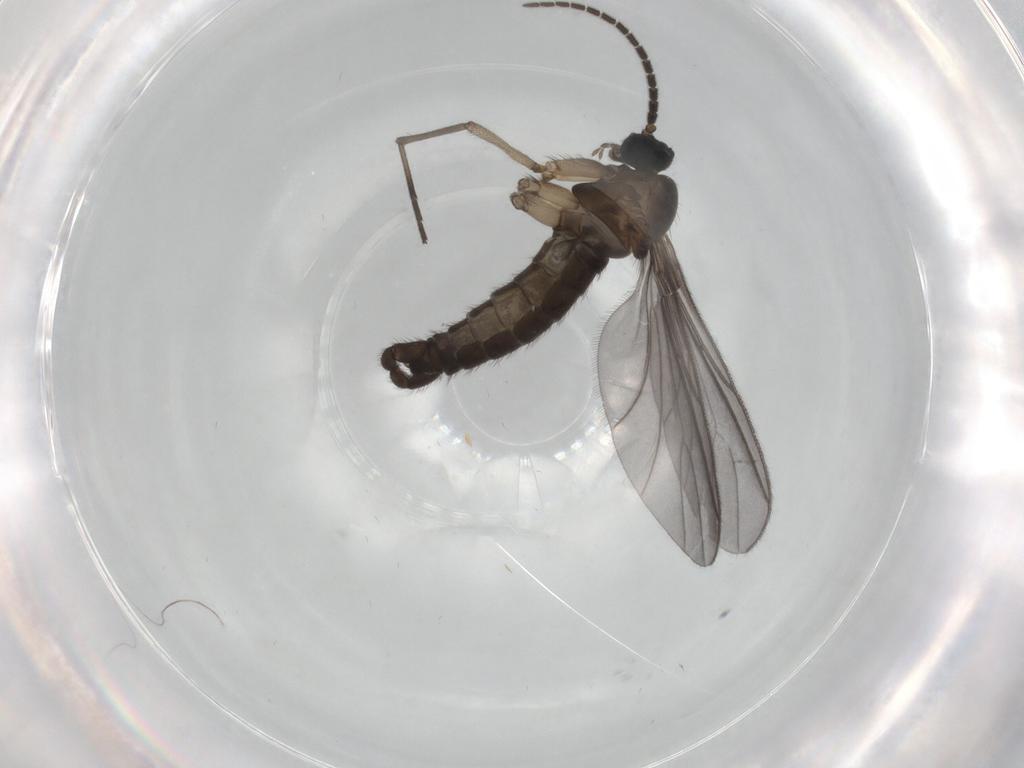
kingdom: Animalia
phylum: Arthropoda
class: Insecta
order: Diptera
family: Sciaridae
